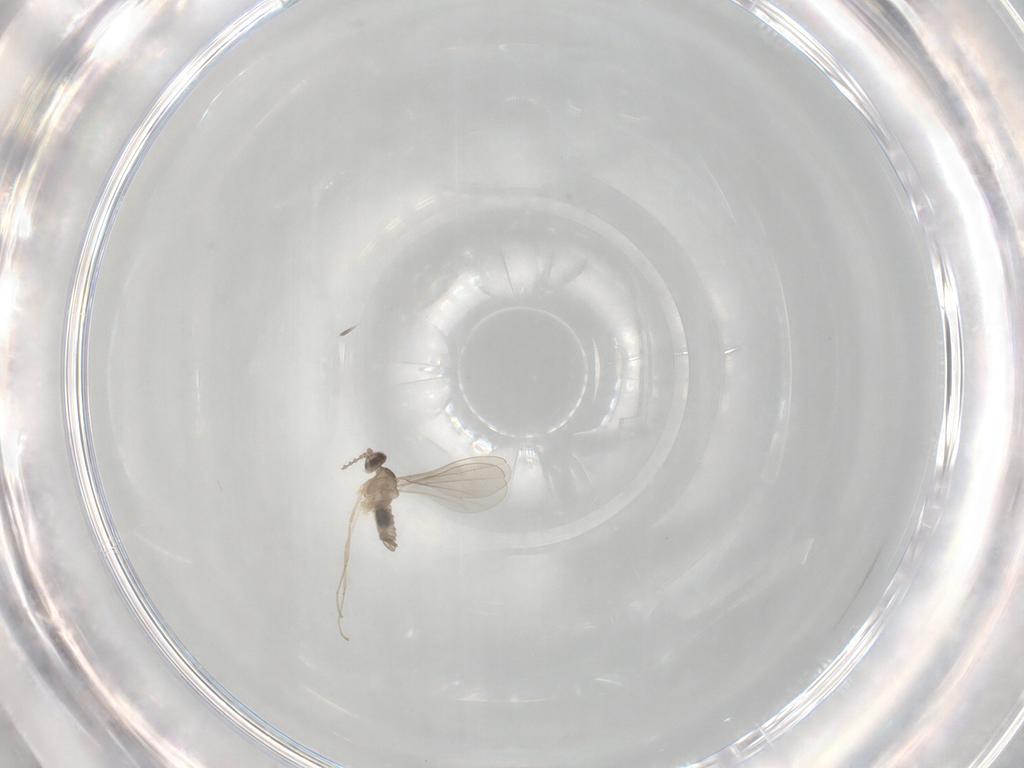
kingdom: Animalia
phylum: Arthropoda
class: Insecta
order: Diptera
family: Cecidomyiidae
